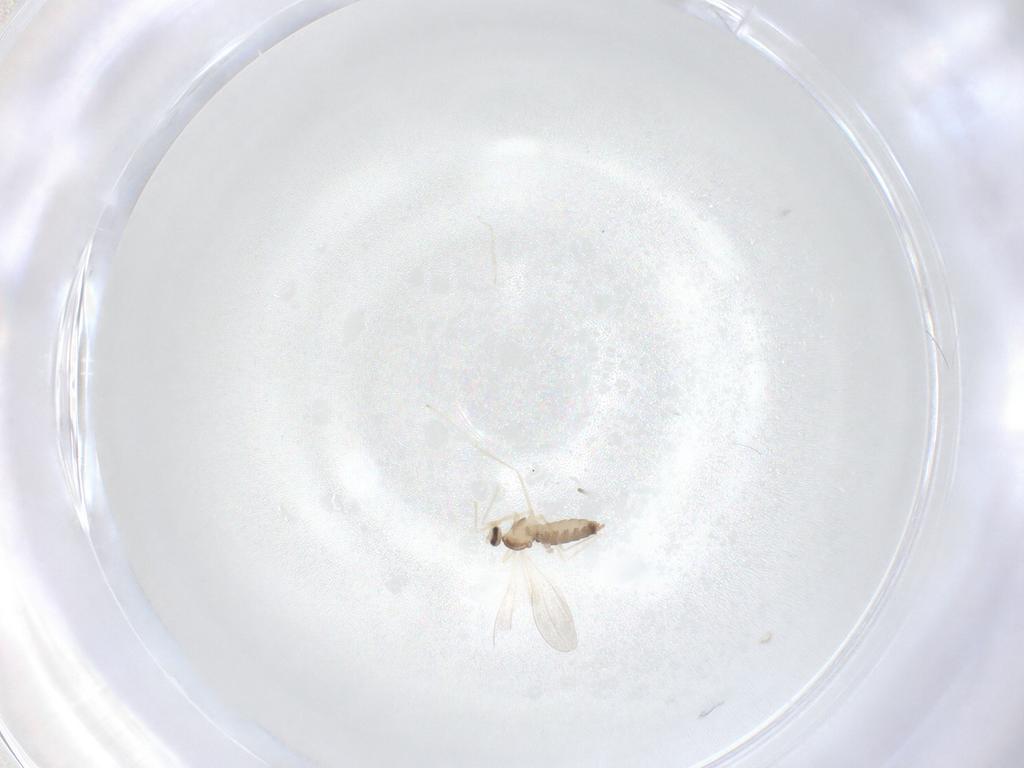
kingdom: Animalia
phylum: Arthropoda
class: Insecta
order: Diptera
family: Cecidomyiidae
